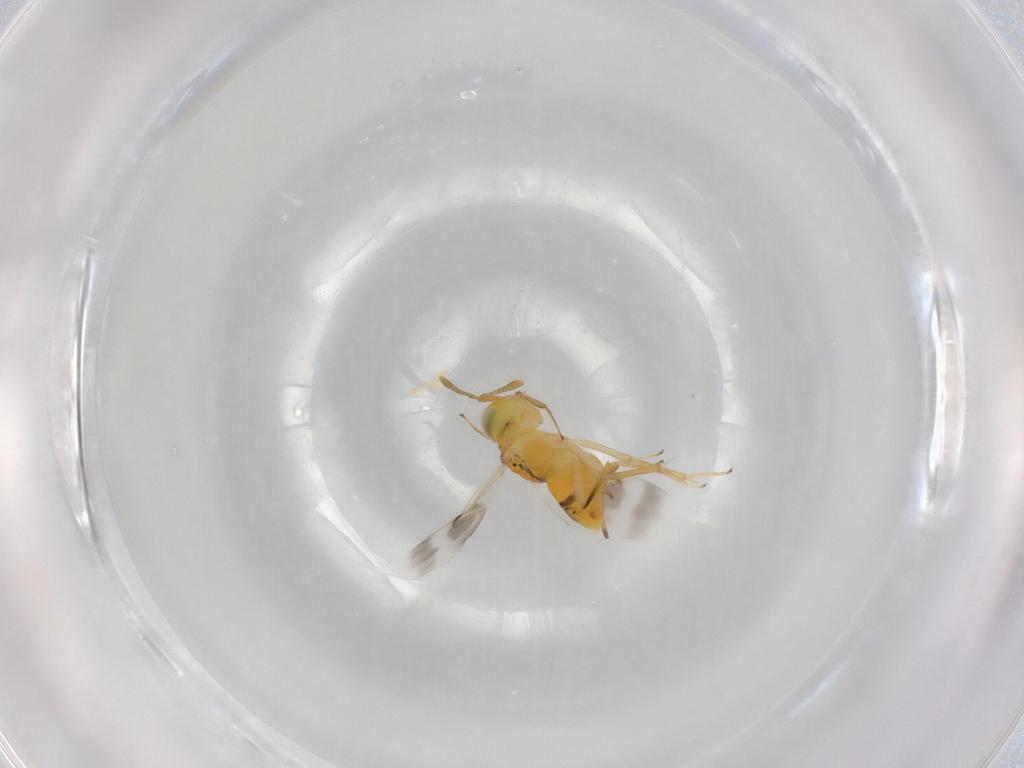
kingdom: Animalia
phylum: Arthropoda
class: Insecta
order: Hymenoptera
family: Encyrtidae
